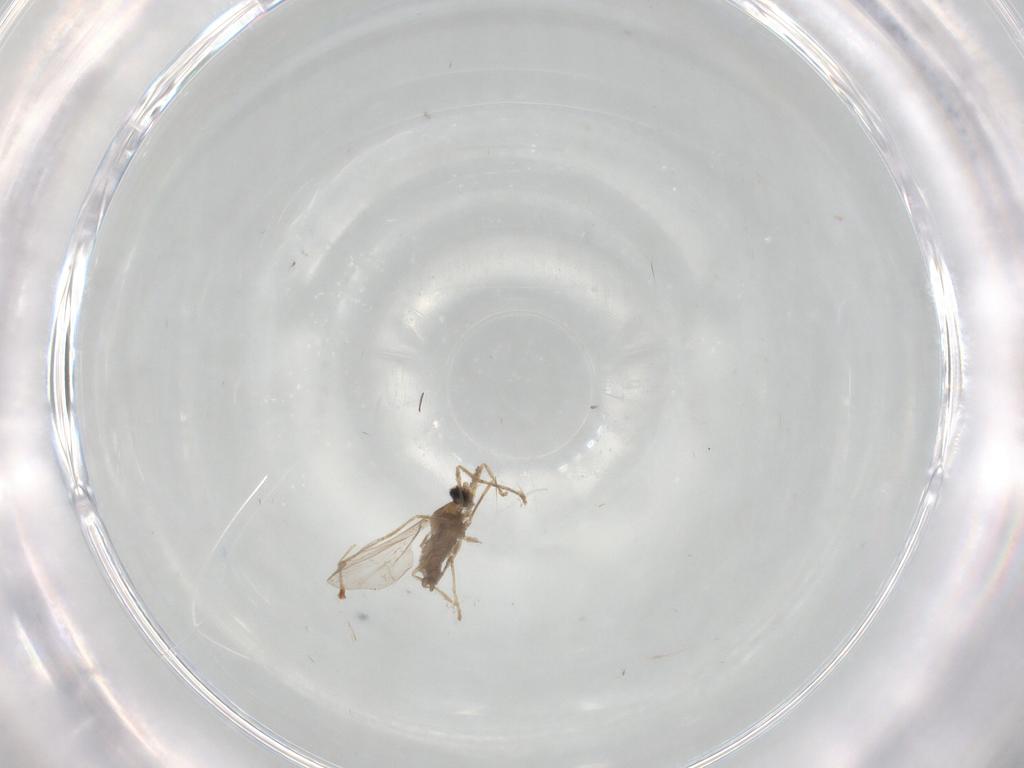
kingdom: Animalia
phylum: Arthropoda
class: Insecta
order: Diptera
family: Cecidomyiidae
